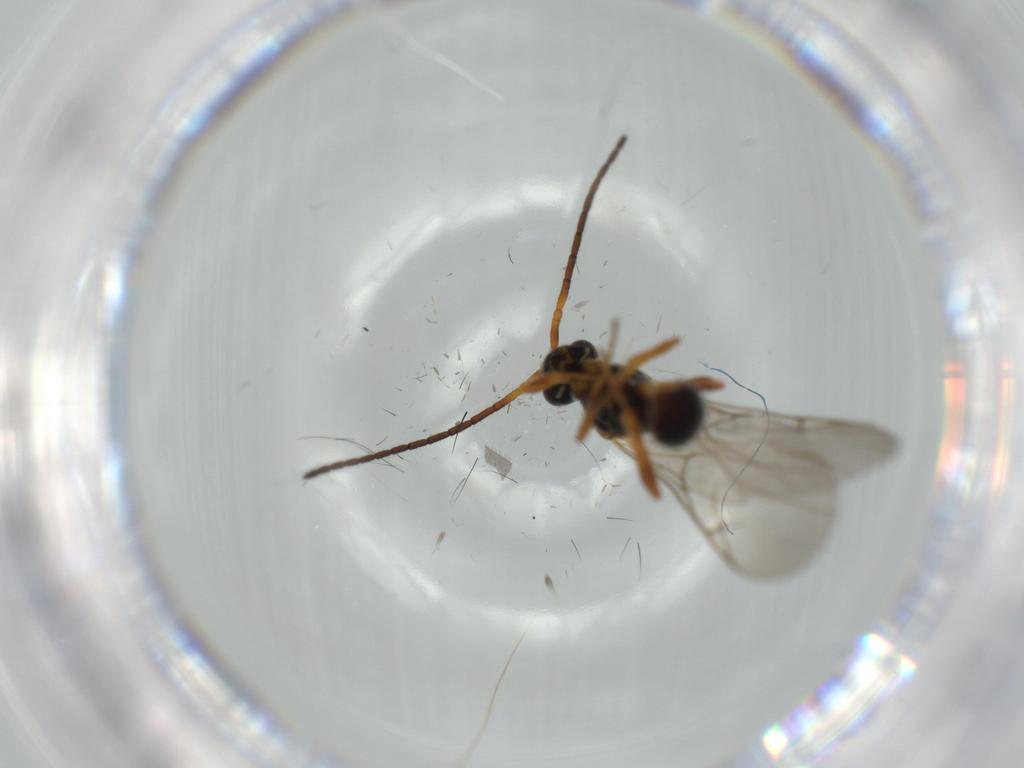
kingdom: Animalia
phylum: Arthropoda
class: Insecta
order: Hymenoptera
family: Diapriidae
